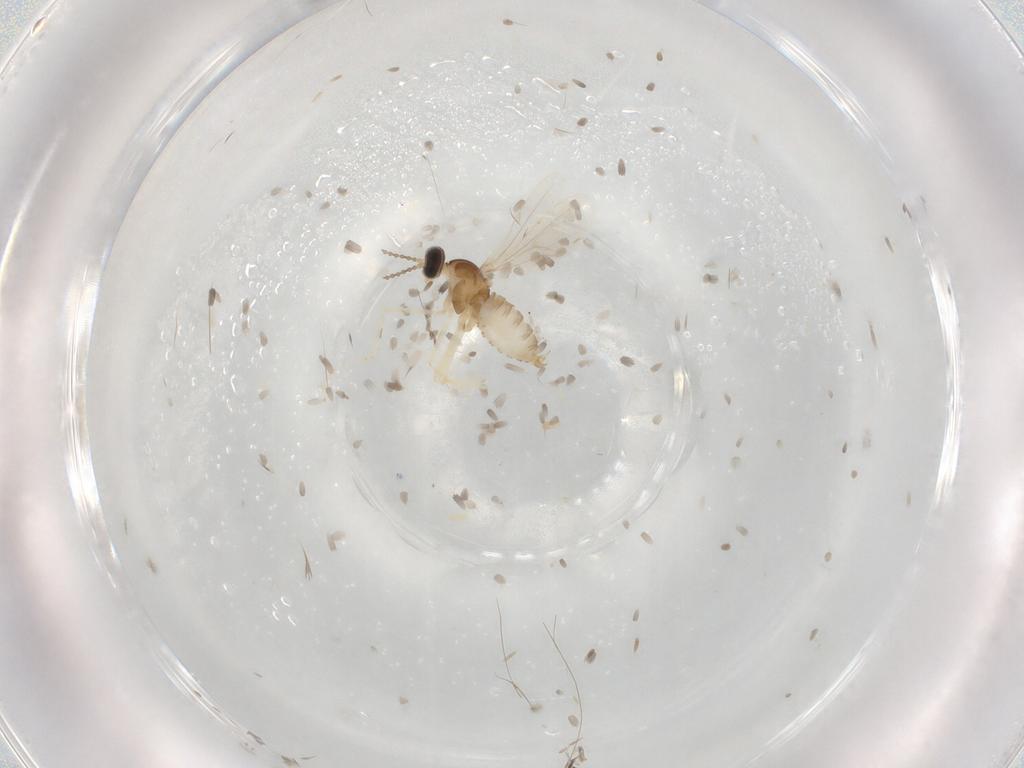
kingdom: Animalia
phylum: Arthropoda
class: Insecta
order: Diptera
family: Cecidomyiidae
